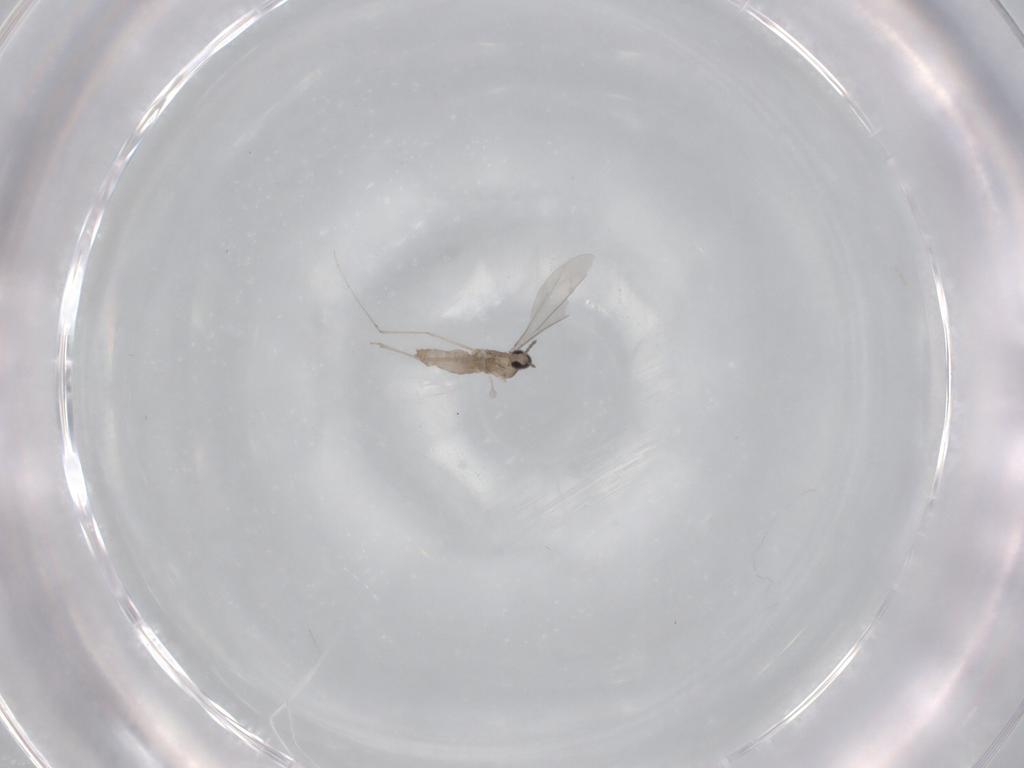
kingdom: Animalia
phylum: Arthropoda
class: Insecta
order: Diptera
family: Cecidomyiidae
